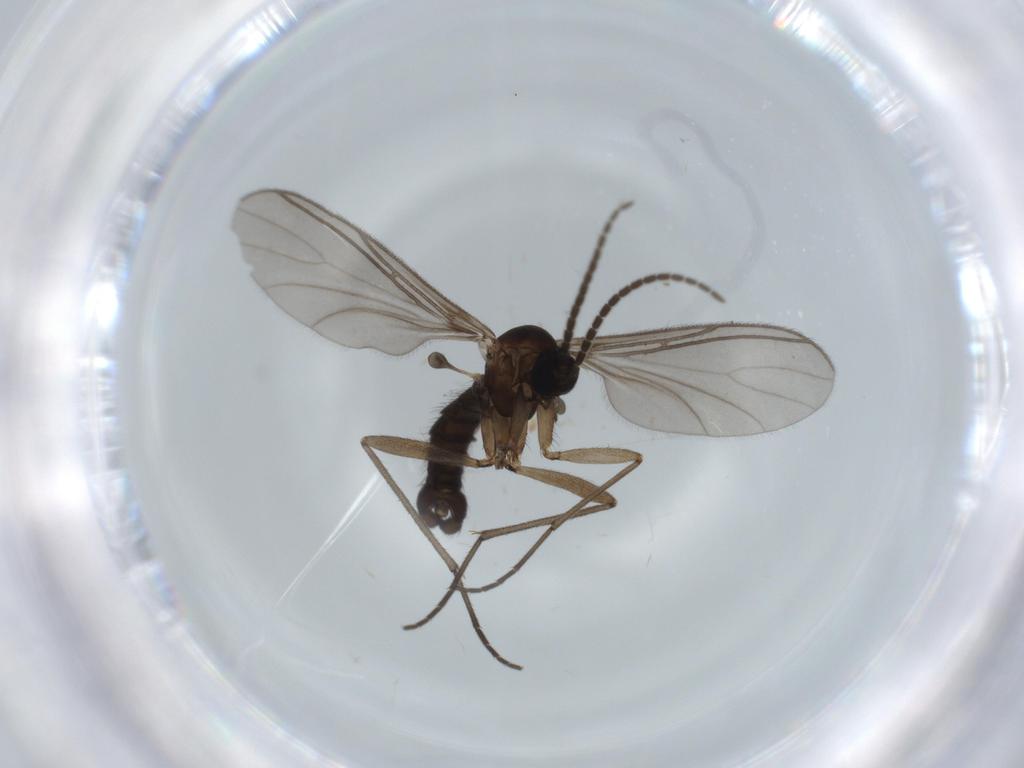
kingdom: Animalia
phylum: Arthropoda
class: Insecta
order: Diptera
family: Sciaridae
